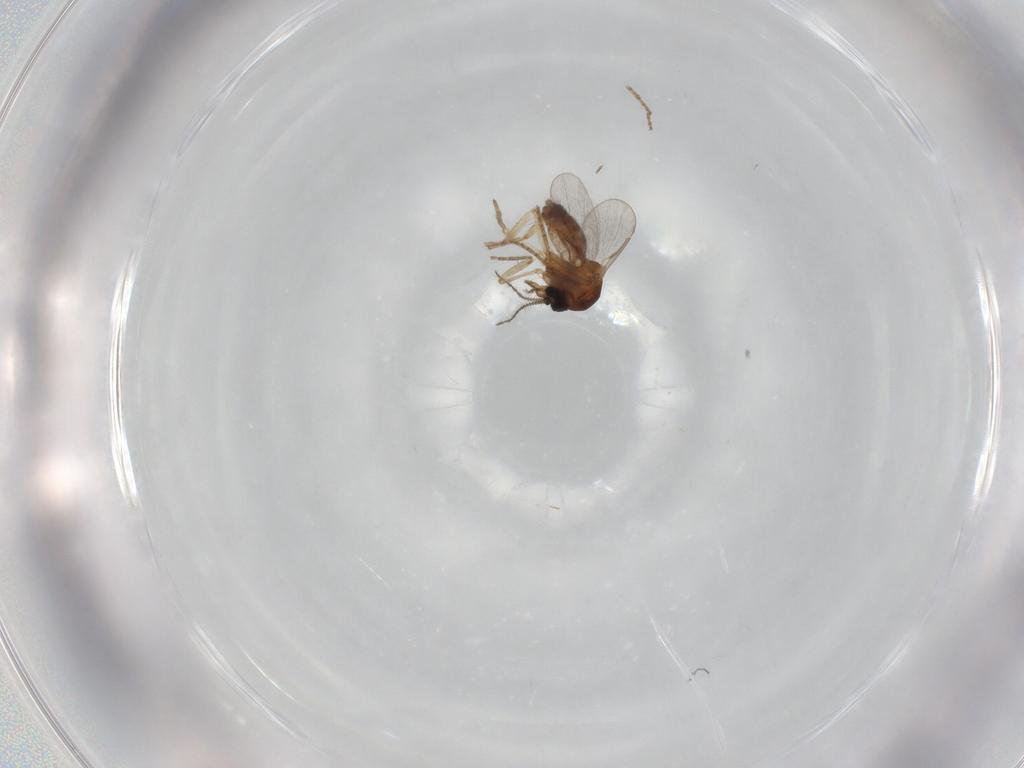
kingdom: Animalia
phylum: Arthropoda
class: Insecta
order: Diptera
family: Ceratopogonidae
